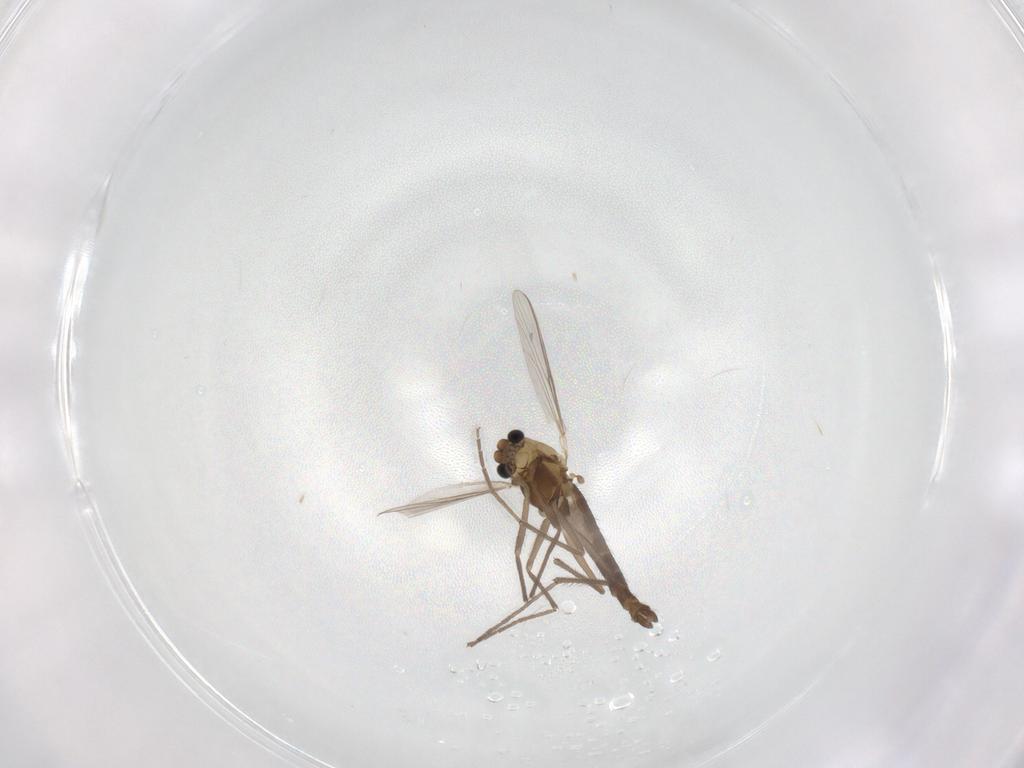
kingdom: Animalia
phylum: Arthropoda
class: Insecta
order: Diptera
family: Chironomidae
